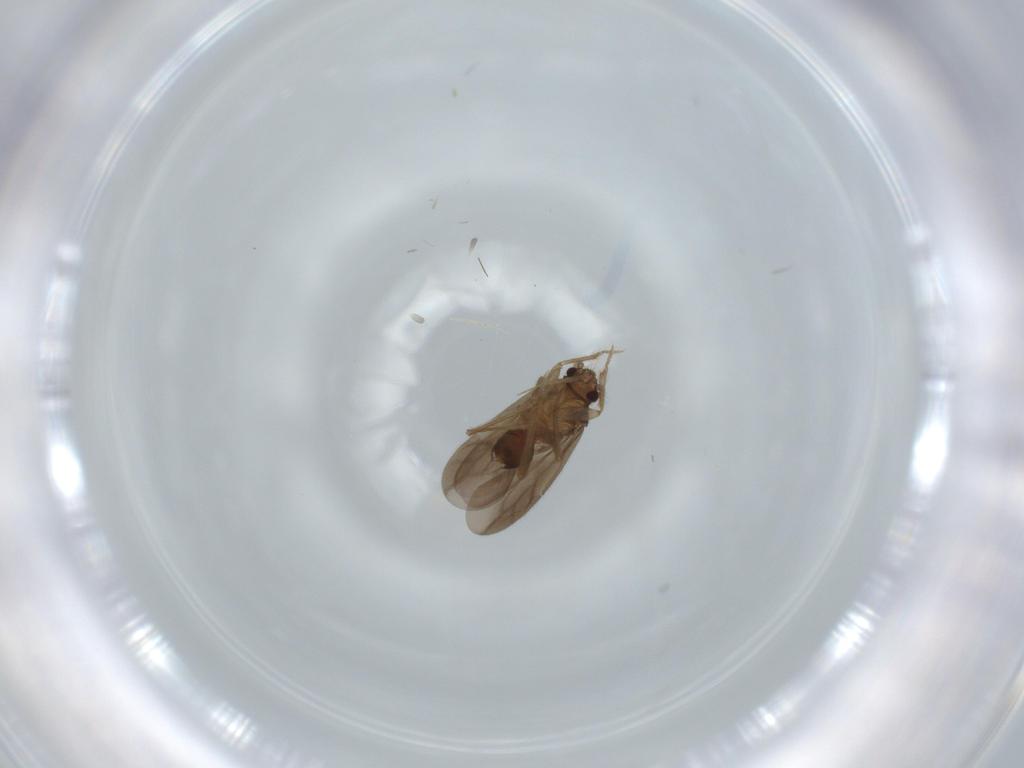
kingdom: Animalia
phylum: Arthropoda
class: Insecta
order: Hemiptera
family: Ceratocombidae
